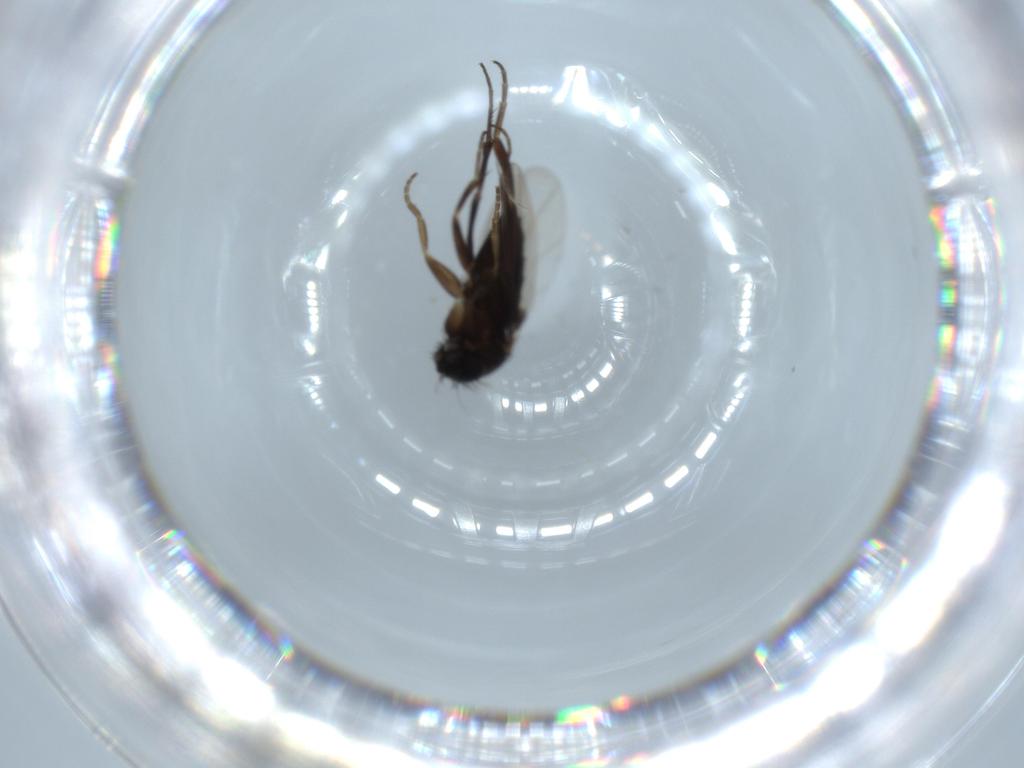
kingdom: Animalia
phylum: Arthropoda
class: Insecta
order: Diptera
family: Phoridae
